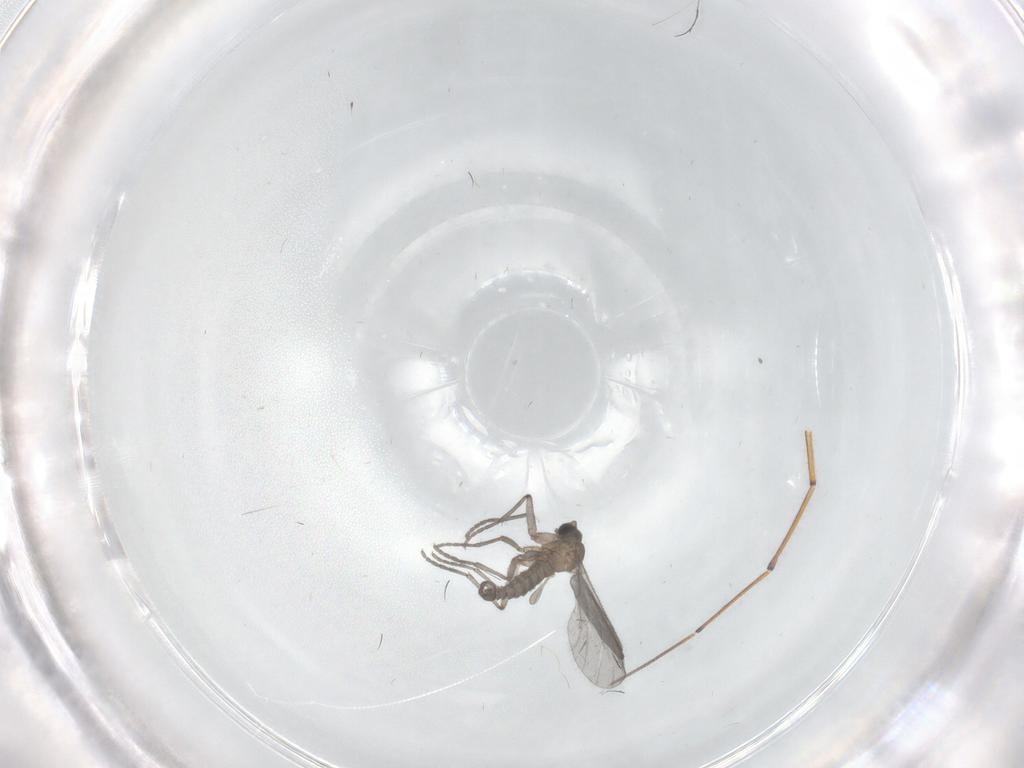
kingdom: Animalia
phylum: Arthropoda
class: Insecta
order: Diptera
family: Sciaridae
